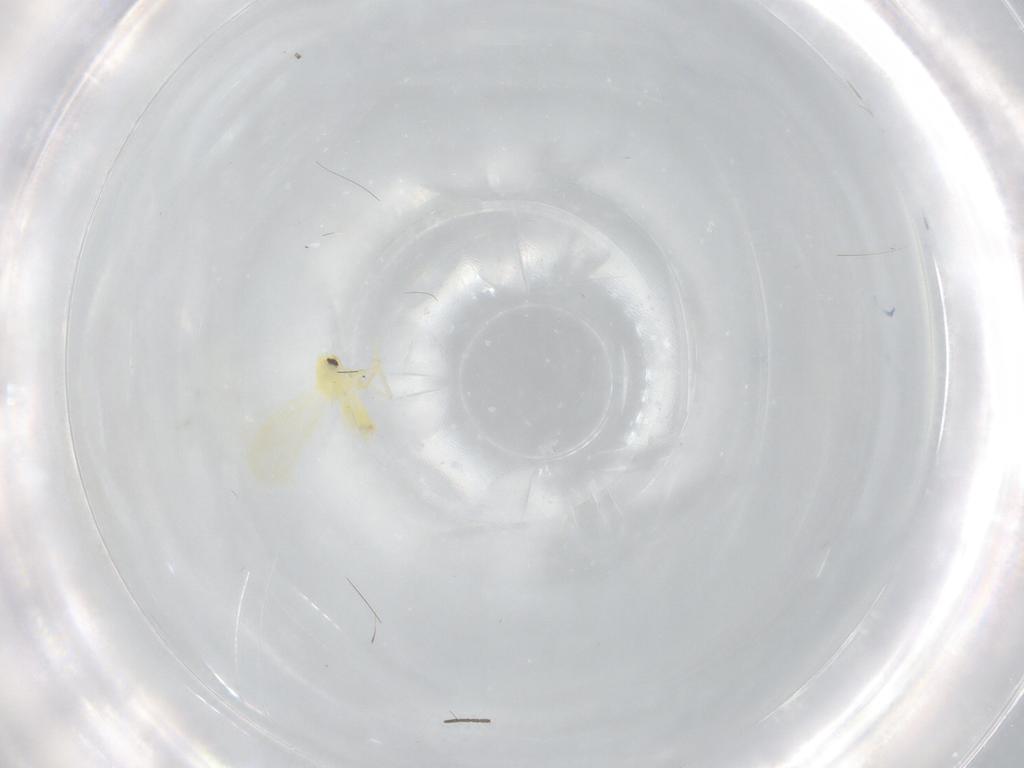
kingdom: Animalia
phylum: Arthropoda
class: Insecta
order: Hemiptera
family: Aleyrodidae
